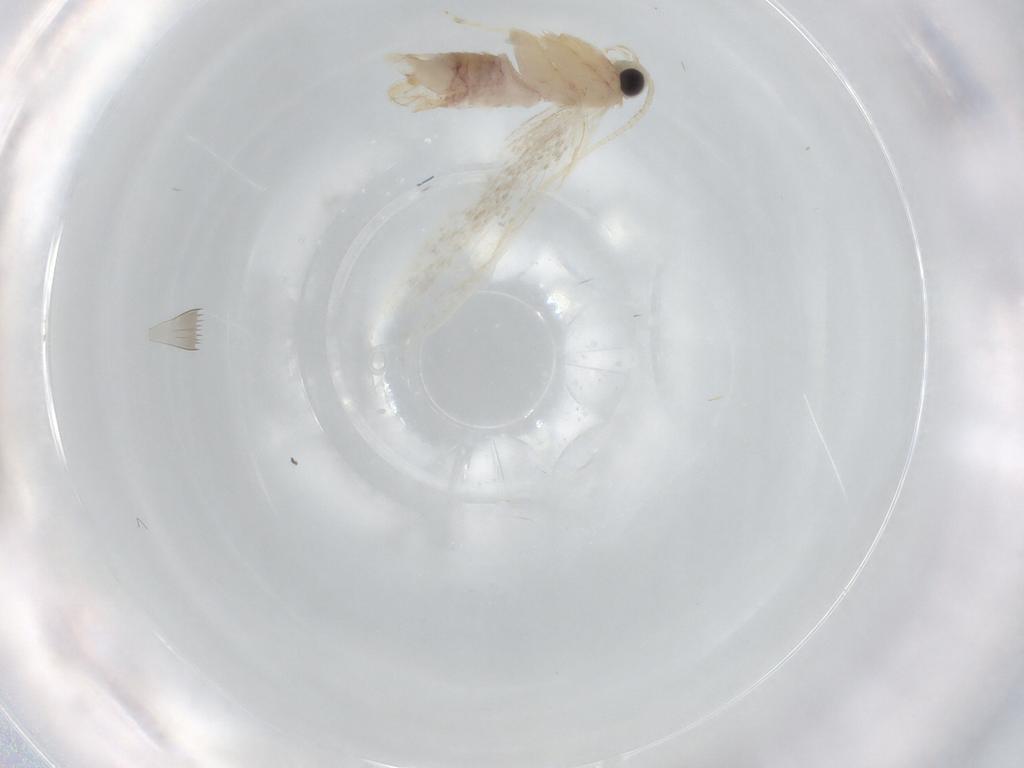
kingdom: Animalia
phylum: Arthropoda
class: Insecta
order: Lepidoptera
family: Dryadaulidae
